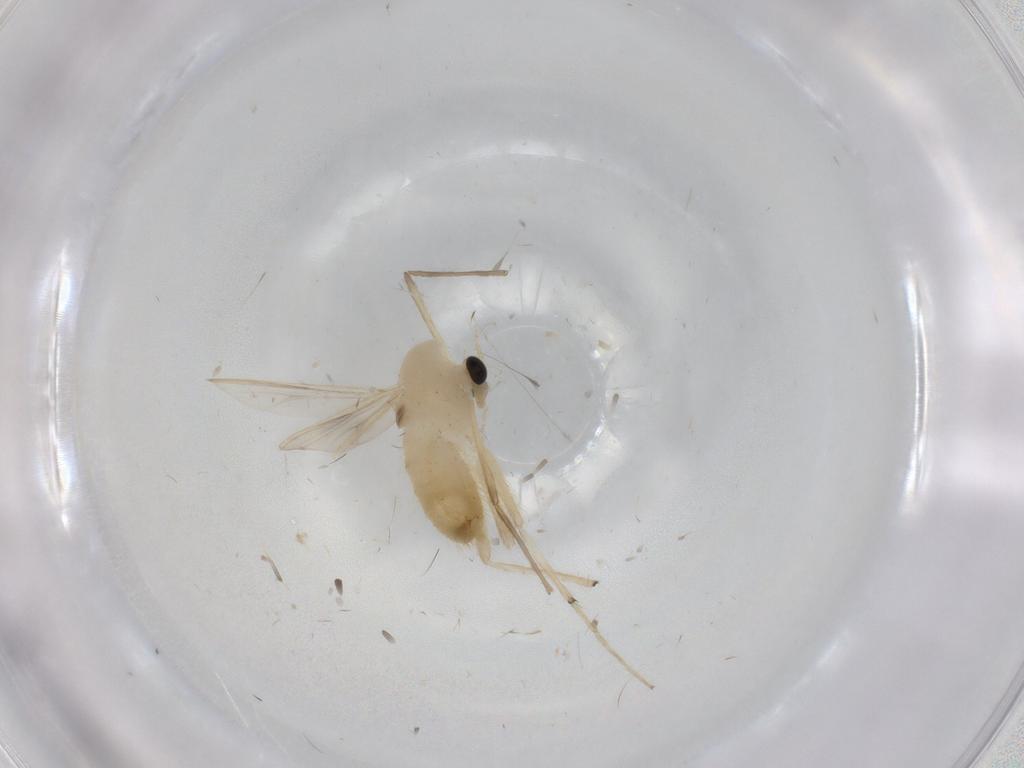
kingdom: Animalia
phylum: Arthropoda
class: Insecta
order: Diptera
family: Chironomidae
